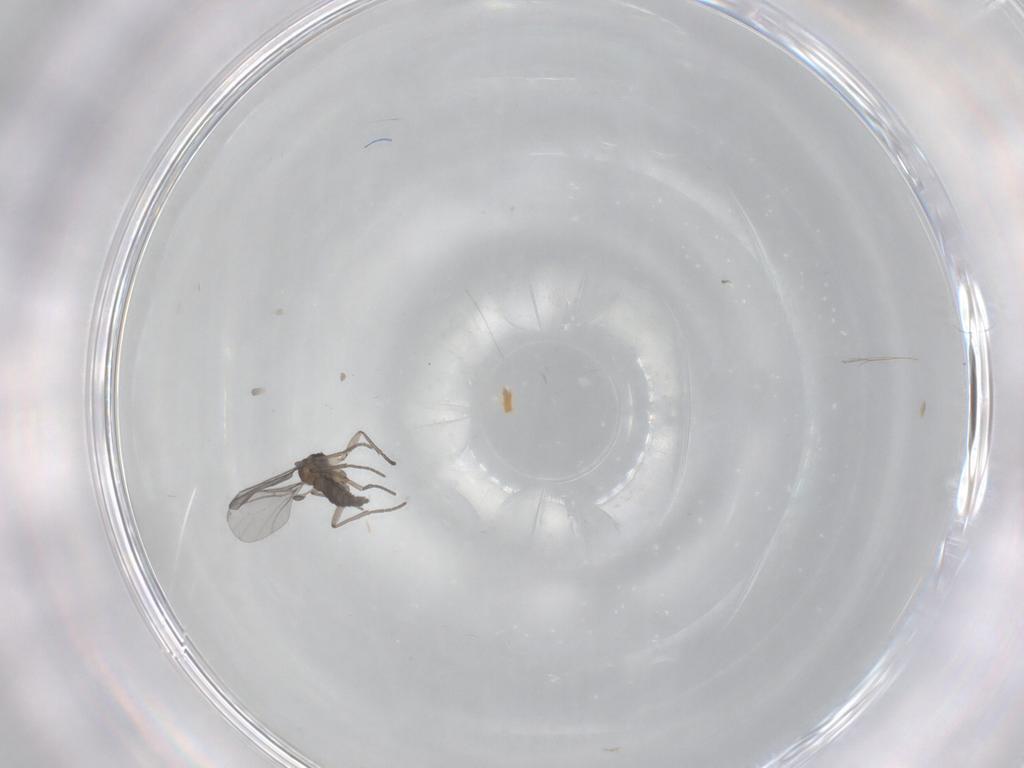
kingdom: Animalia
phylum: Arthropoda
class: Insecta
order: Diptera
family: Sciaridae
